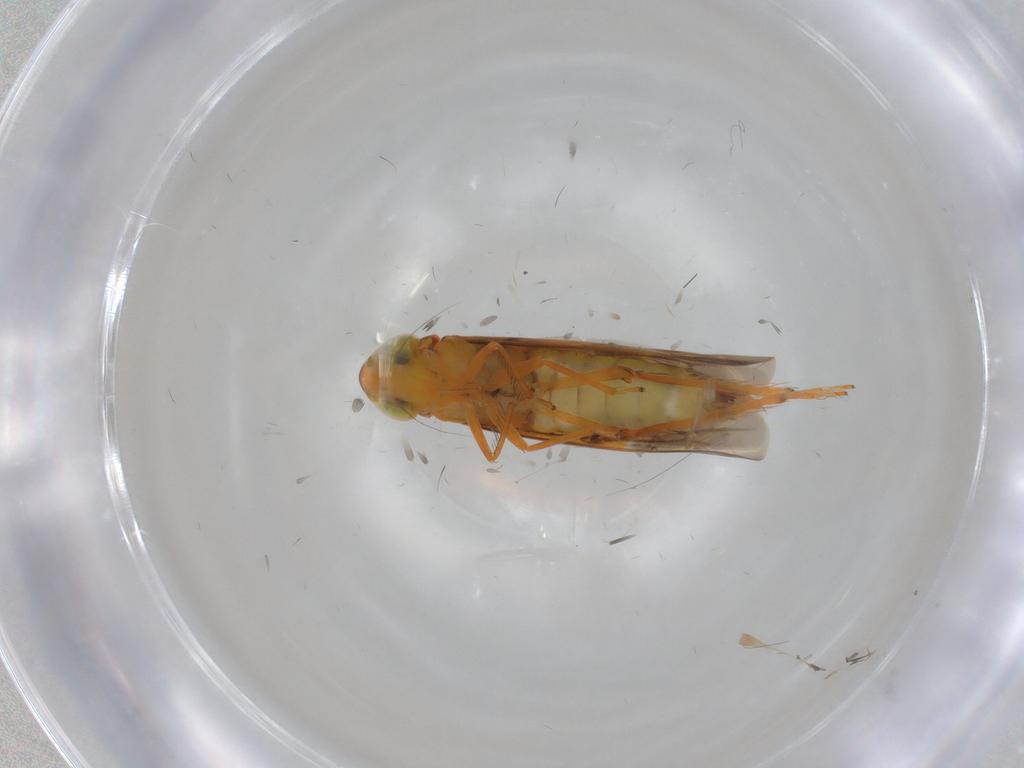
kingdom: Animalia
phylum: Arthropoda
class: Insecta
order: Hemiptera
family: Cicadellidae
